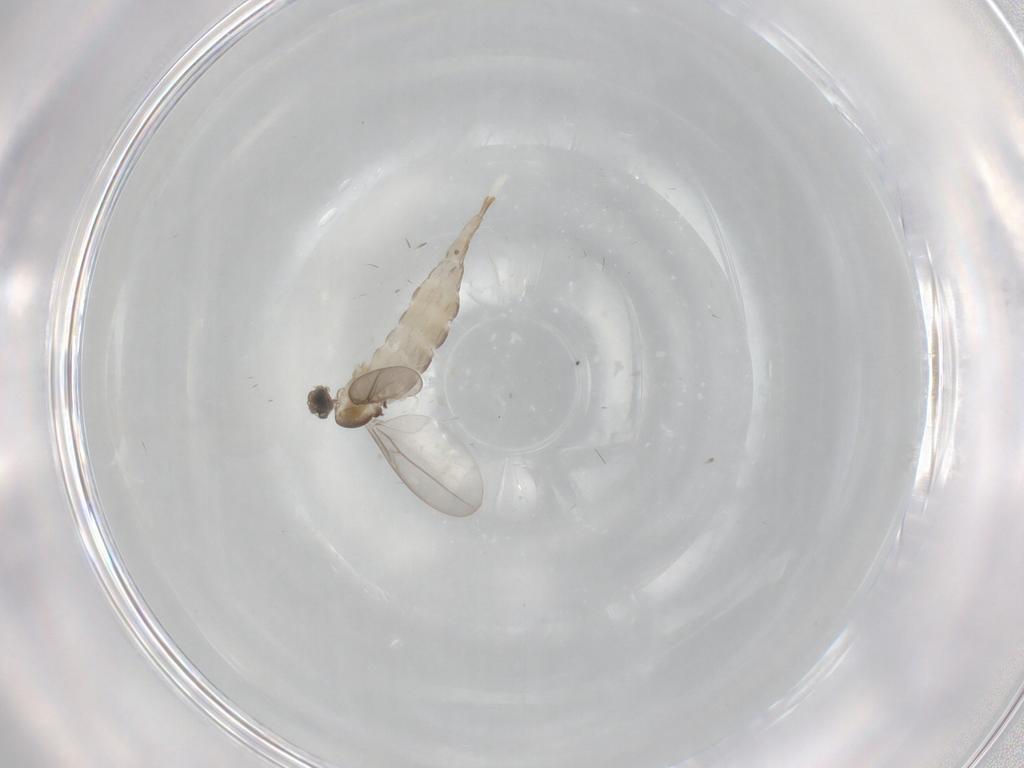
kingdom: Animalia
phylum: Arthropoda
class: Insecta
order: Diptera
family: Cecidomyiidae
